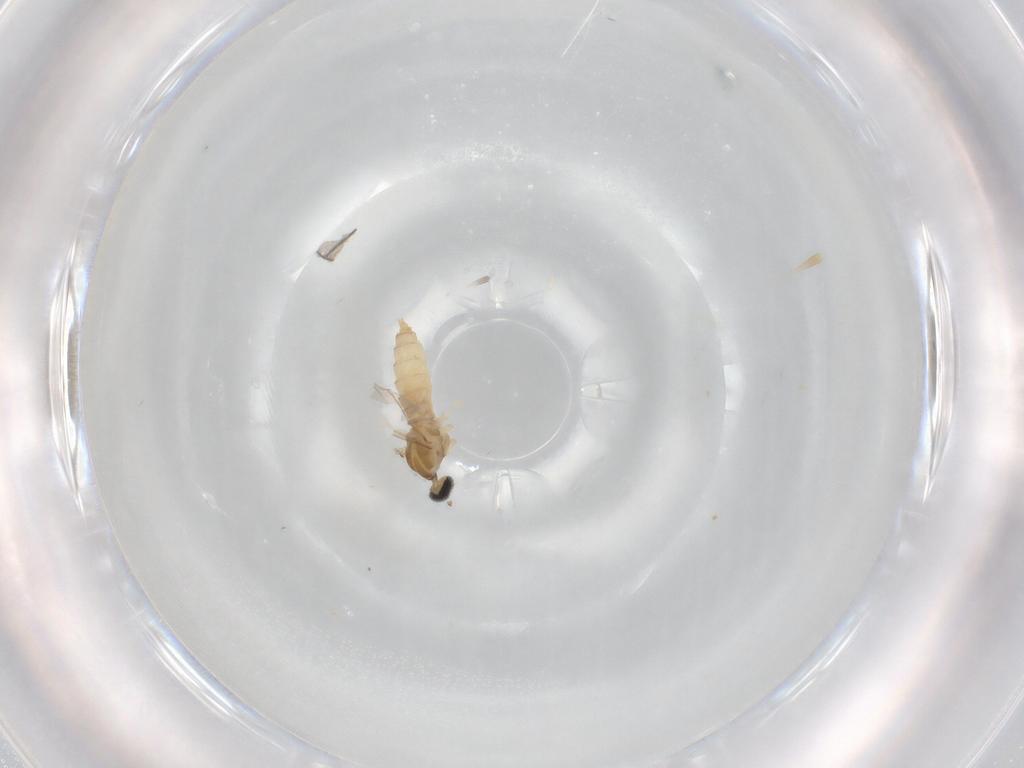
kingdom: Animalia
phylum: Arthropoda
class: Insecta
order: Diptera
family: Cecidomyiidae
